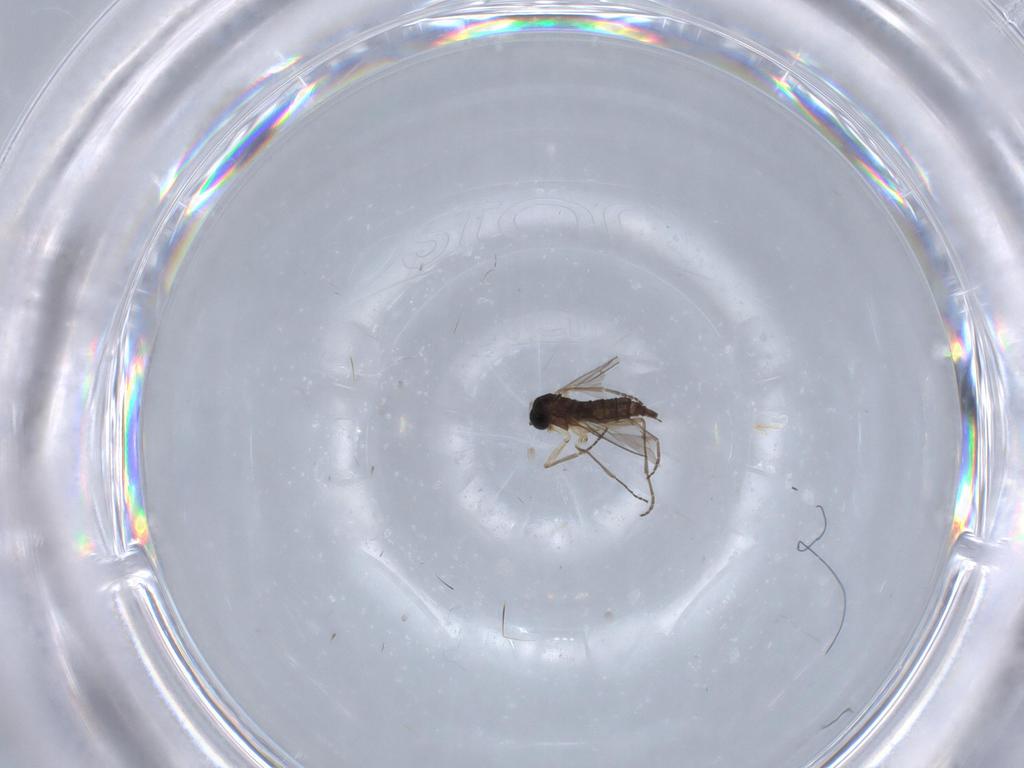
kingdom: Animalia
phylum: Arthropoda
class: Insecta
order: Diptera
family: Sciaridae
